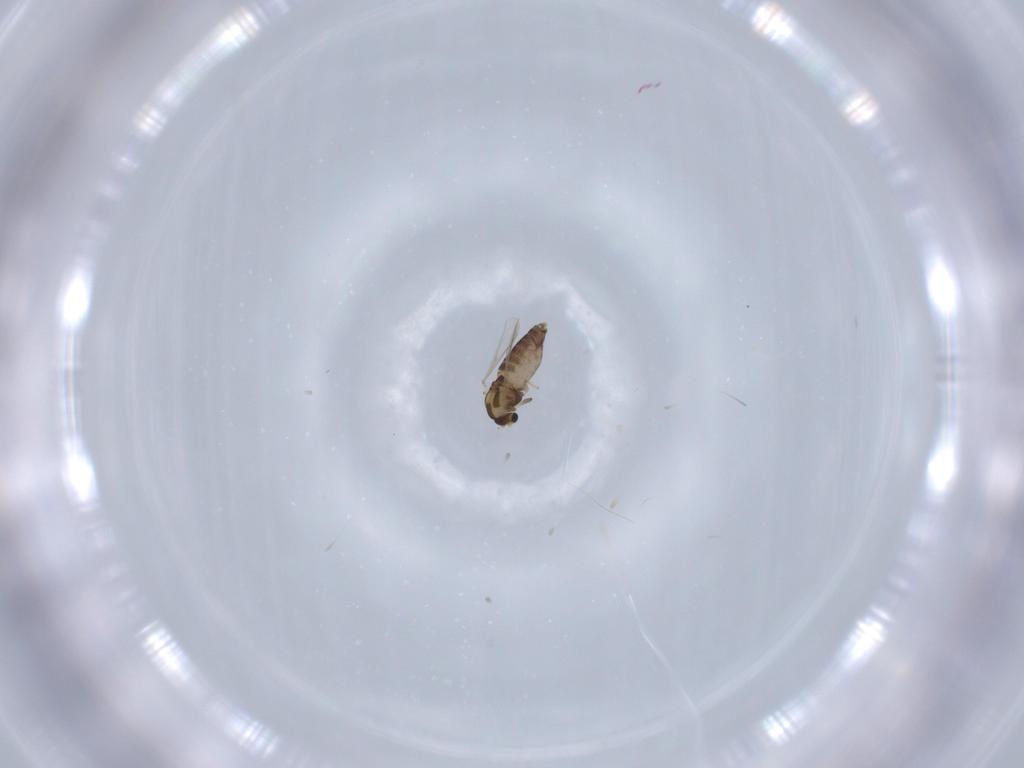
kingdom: Animalia
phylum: Arthropoda
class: Insecta
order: Diptera
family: Chironomidae
